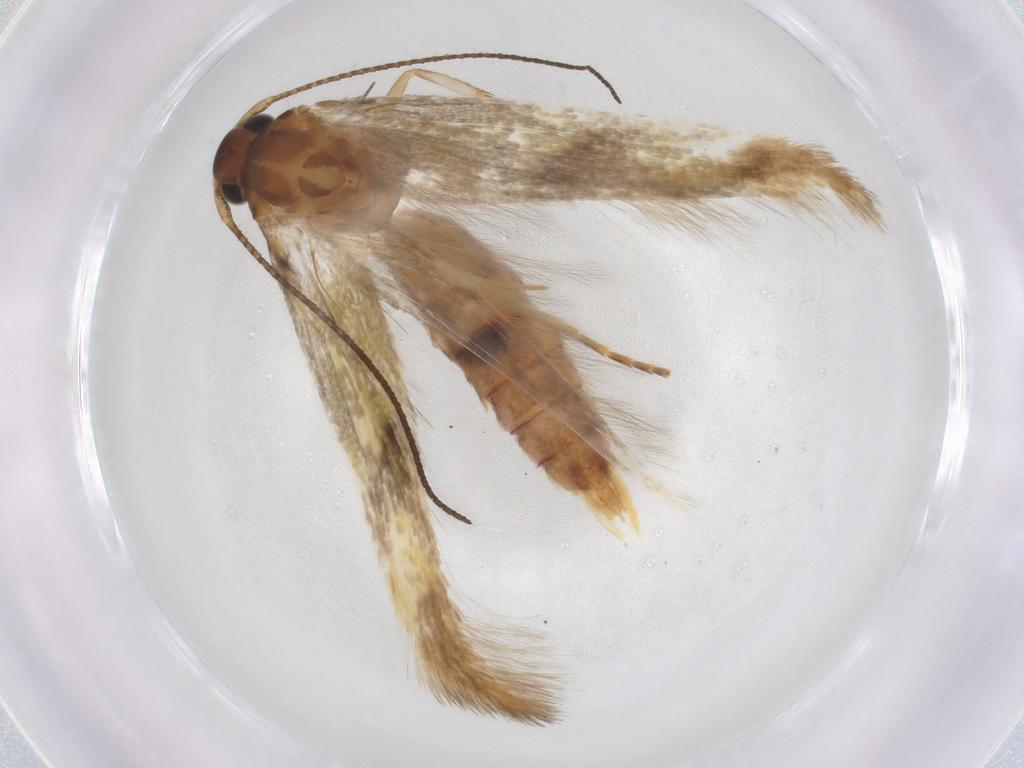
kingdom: Animalia
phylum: Arthropoda
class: Insecta
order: Lepidoptera
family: Stathmopodidae
